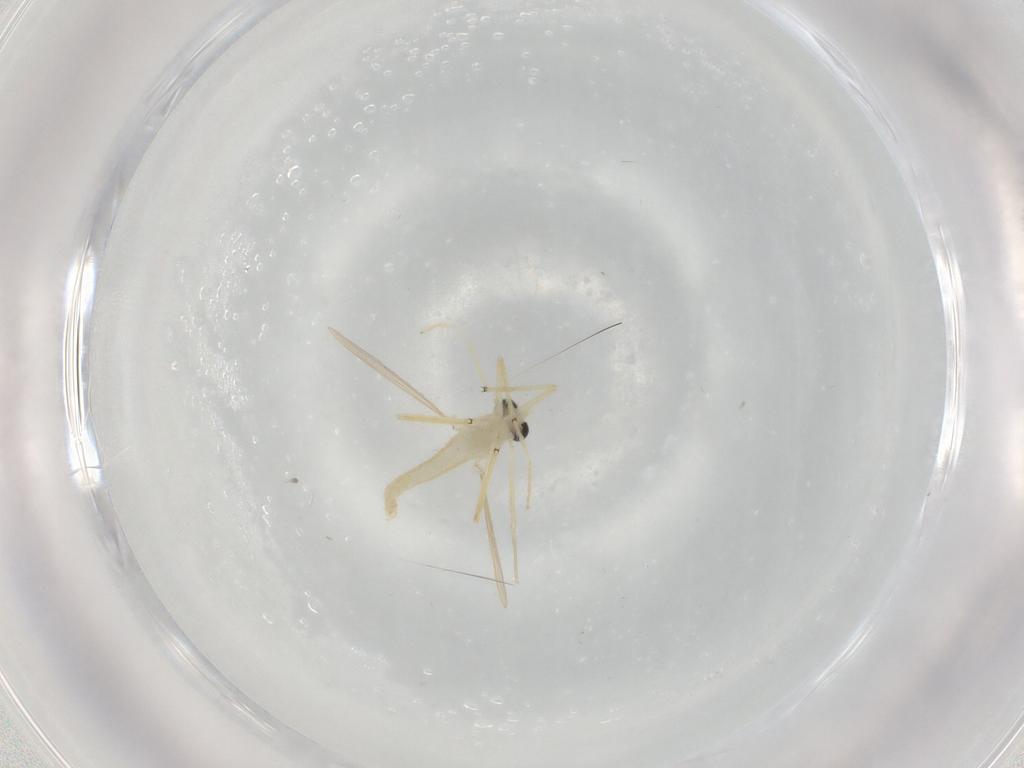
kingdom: Animalia
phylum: Arthropoda
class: Insecta
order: Diptera
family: Chironomidae
